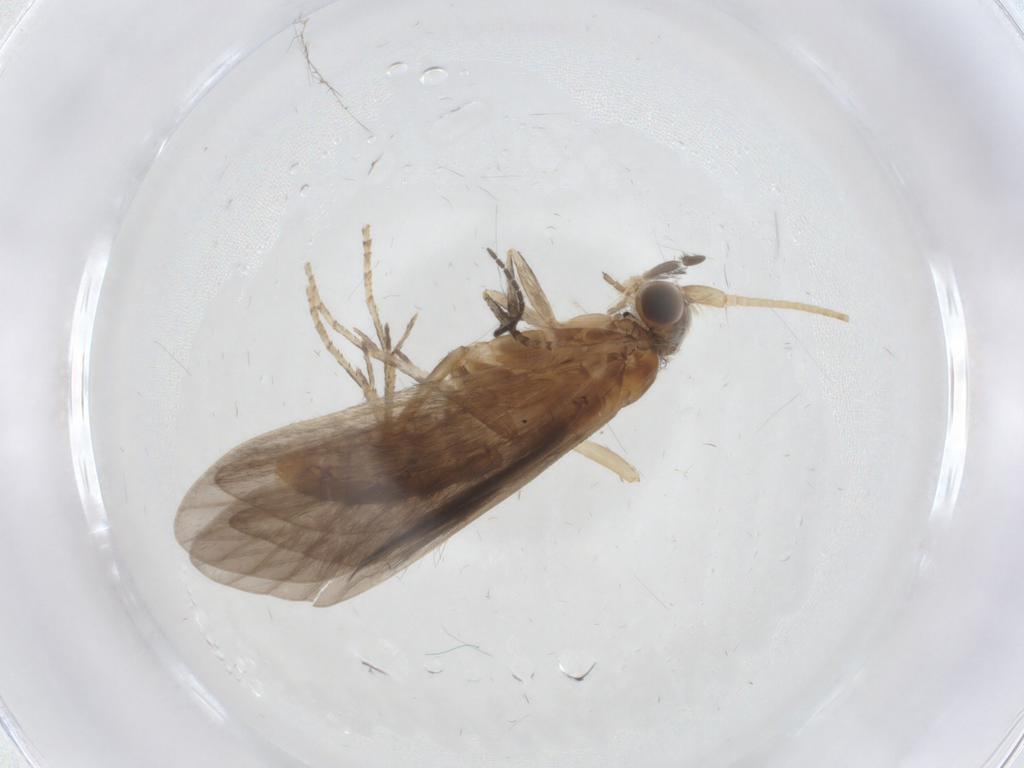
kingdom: Animalia
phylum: Arthropoda
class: Insecta
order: Trichoptera
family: Helicopsychidae
